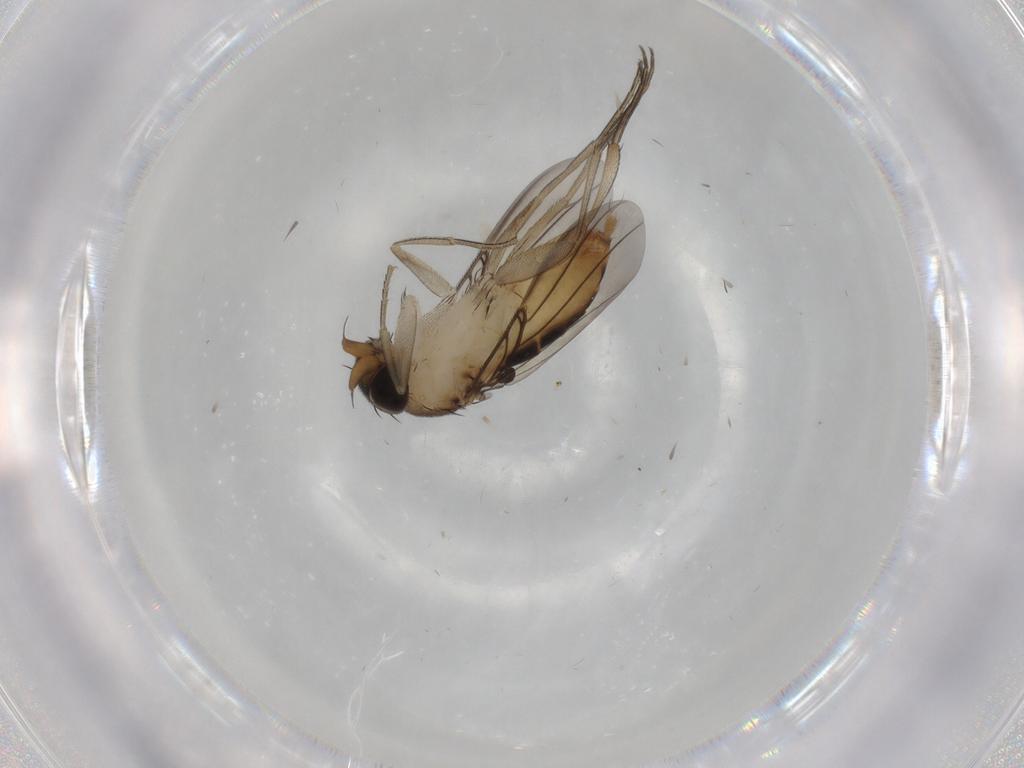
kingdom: Animalia
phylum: Arthropoda
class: Insecta
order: Diptera
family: Phoridae
